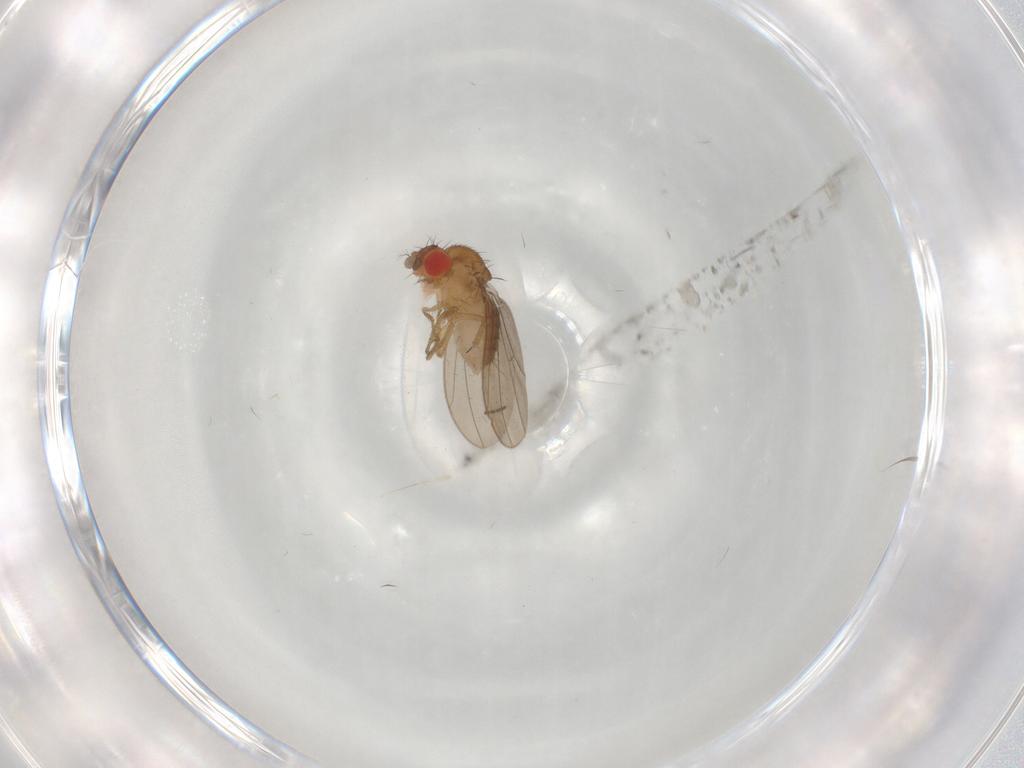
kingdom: Animalia
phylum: Arthropoda
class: Insecta
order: Diptera
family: Drosophilidae
